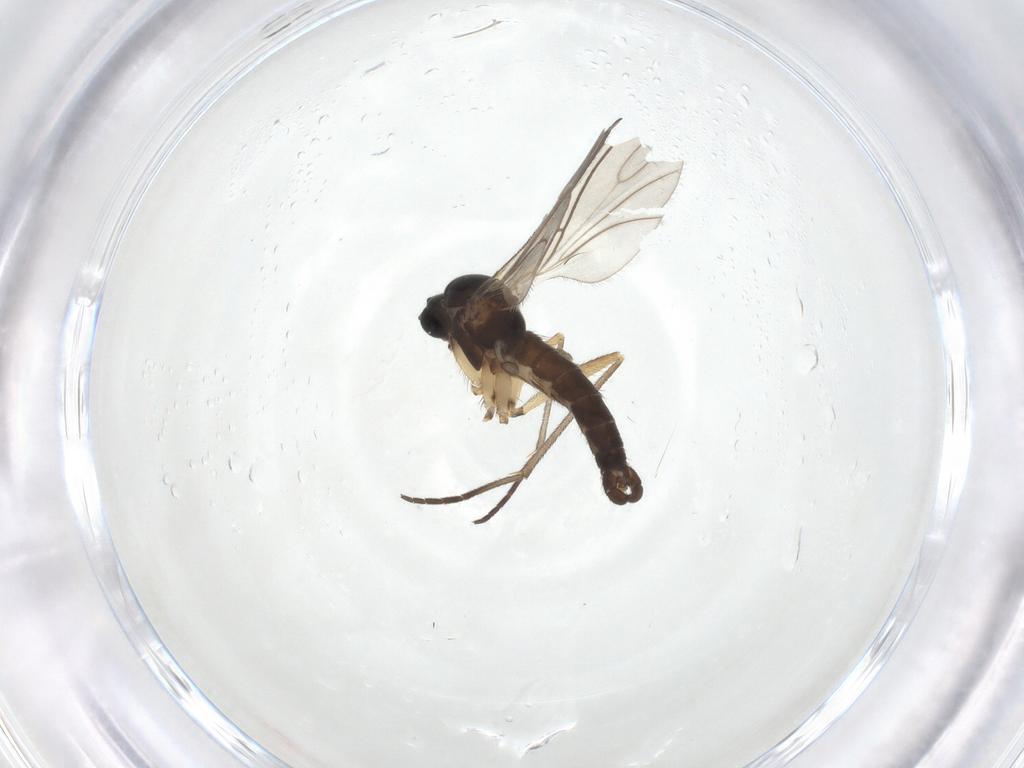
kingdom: Animalia
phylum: Arthropoda
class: Insecta
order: Diptera
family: Sciaridae
